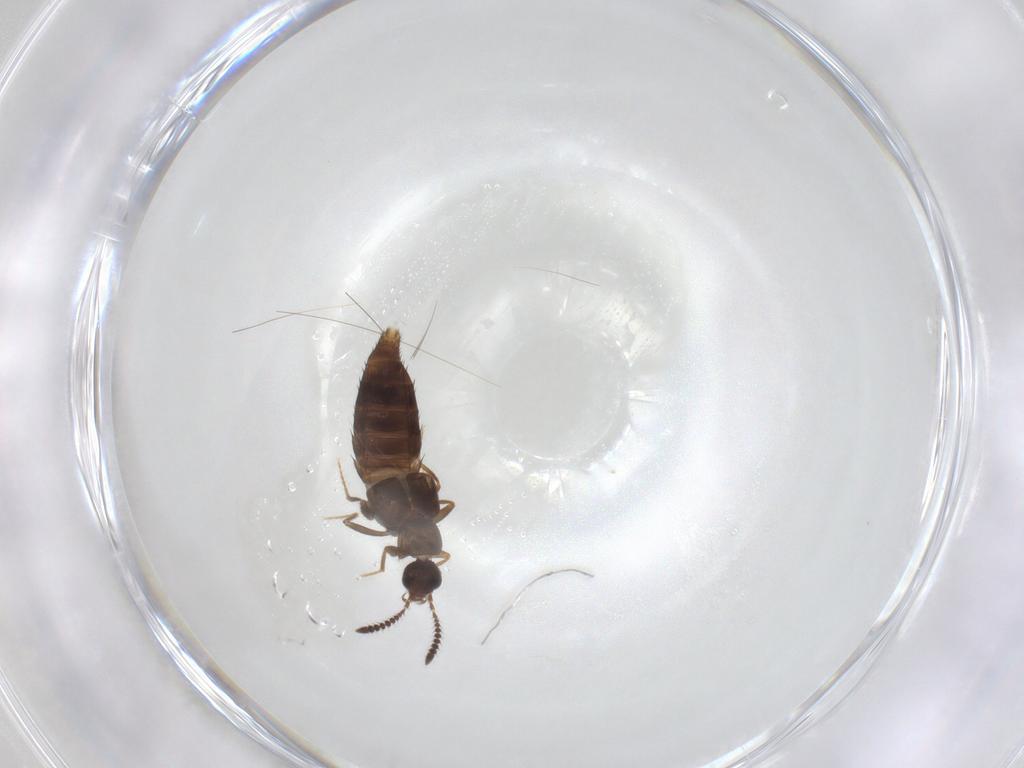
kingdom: Animalia
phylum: Arthropoda
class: Insecta
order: Coleoptera
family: Staphylinidae
